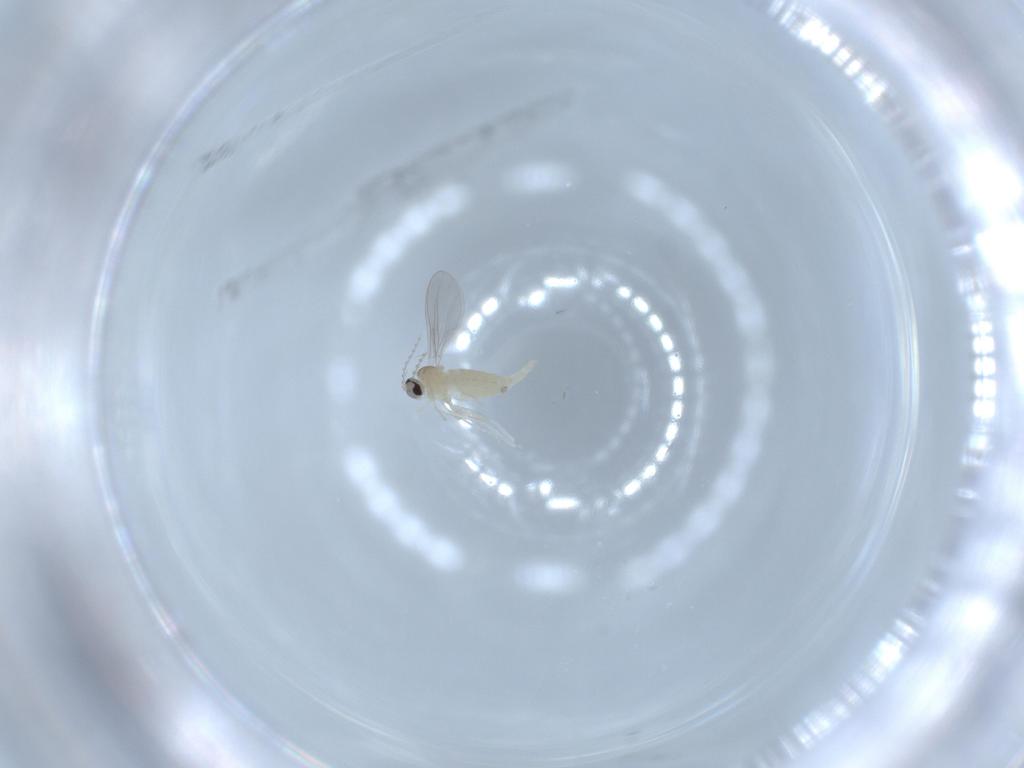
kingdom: Animalia
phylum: Arthropoda
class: Insecta
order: Diptera
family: Cecidomyiidae
